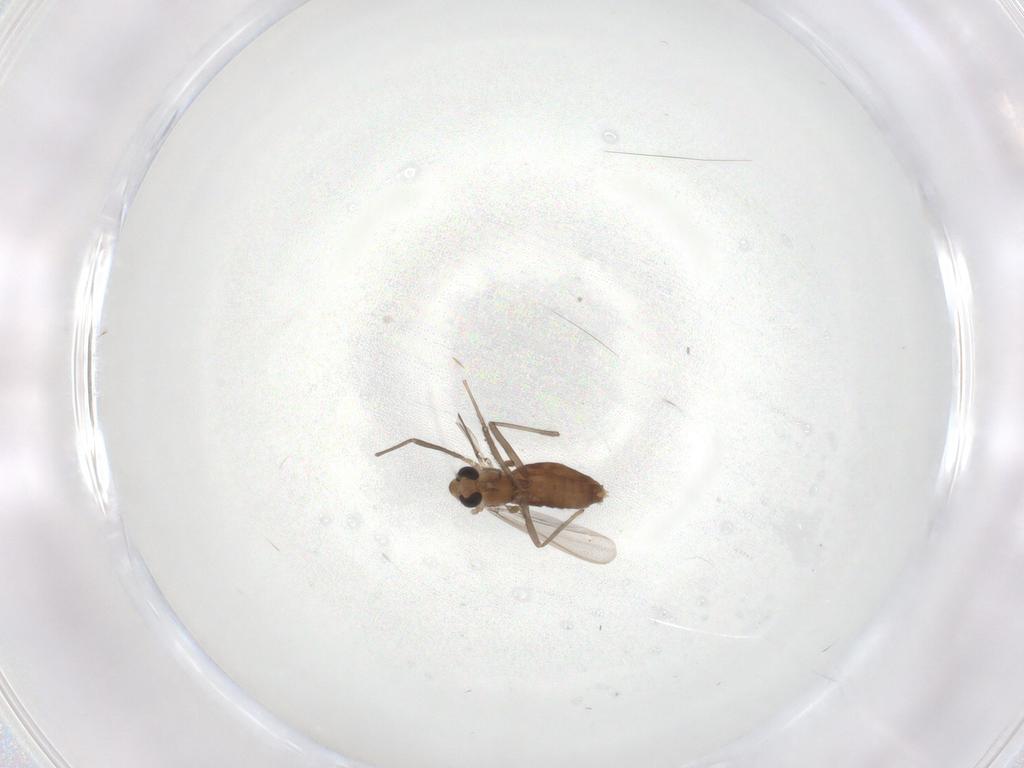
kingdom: Animalia
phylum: Arthropoda
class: Insecta
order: Diptera
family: Chironomidae
